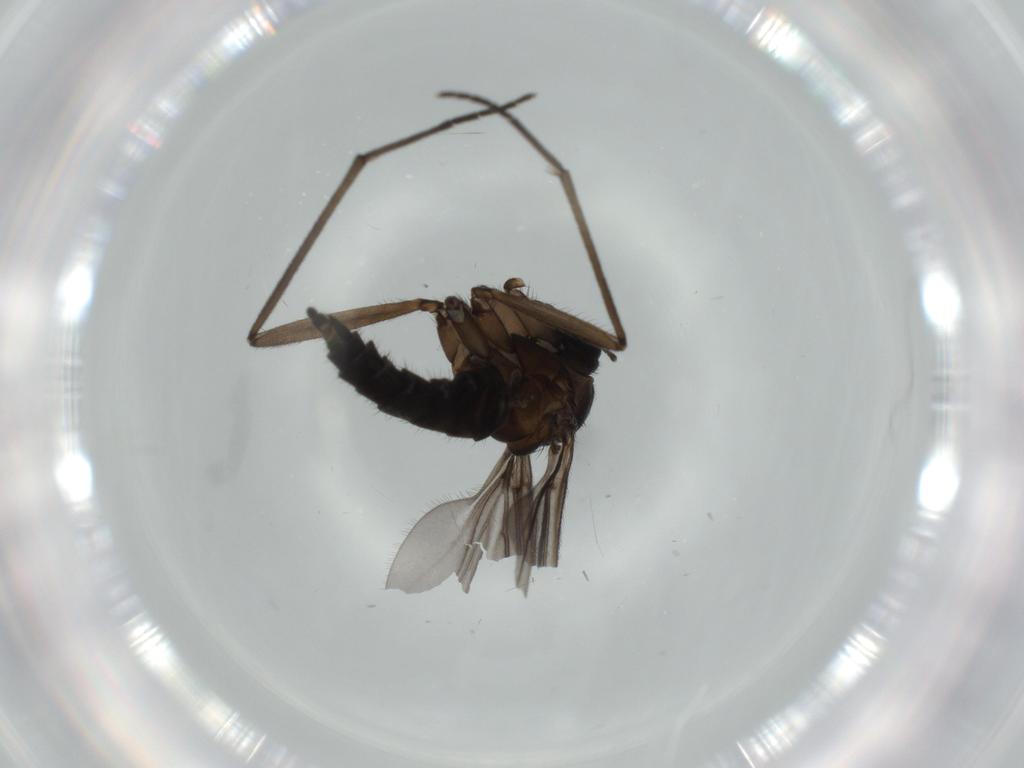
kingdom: Animalia
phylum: Arthropoda
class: Insecta
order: Diptera
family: Sciaridae
